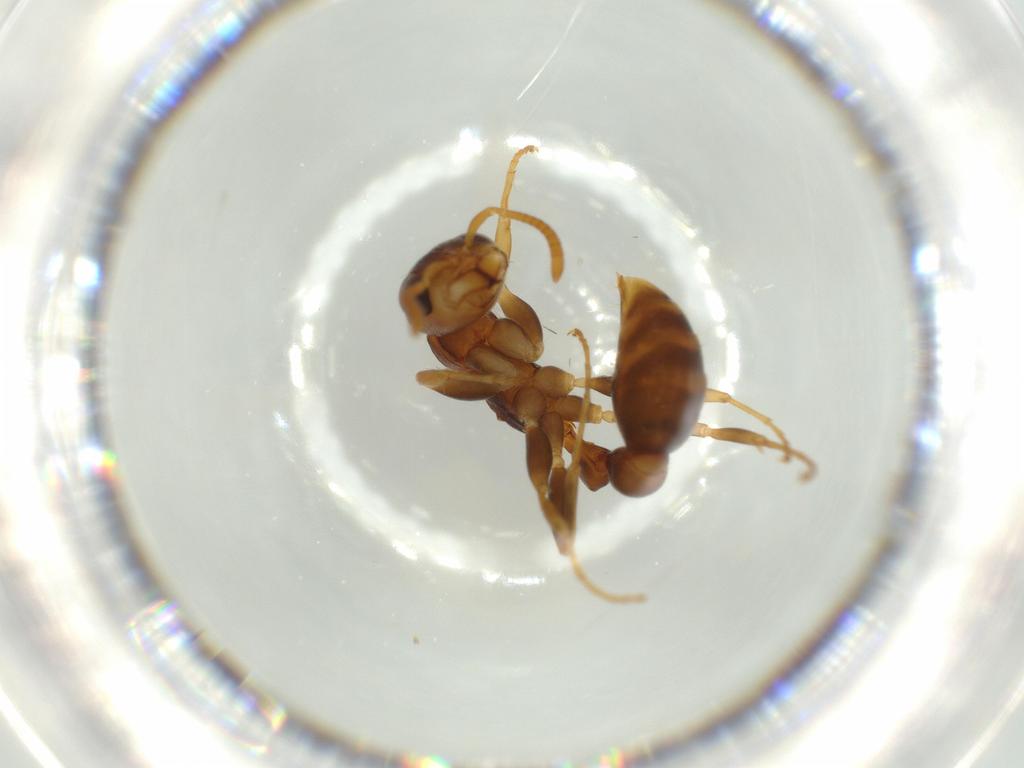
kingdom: Animalia
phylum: Arthropoda
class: Insecta
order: Hymenoptera
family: Formicidae
